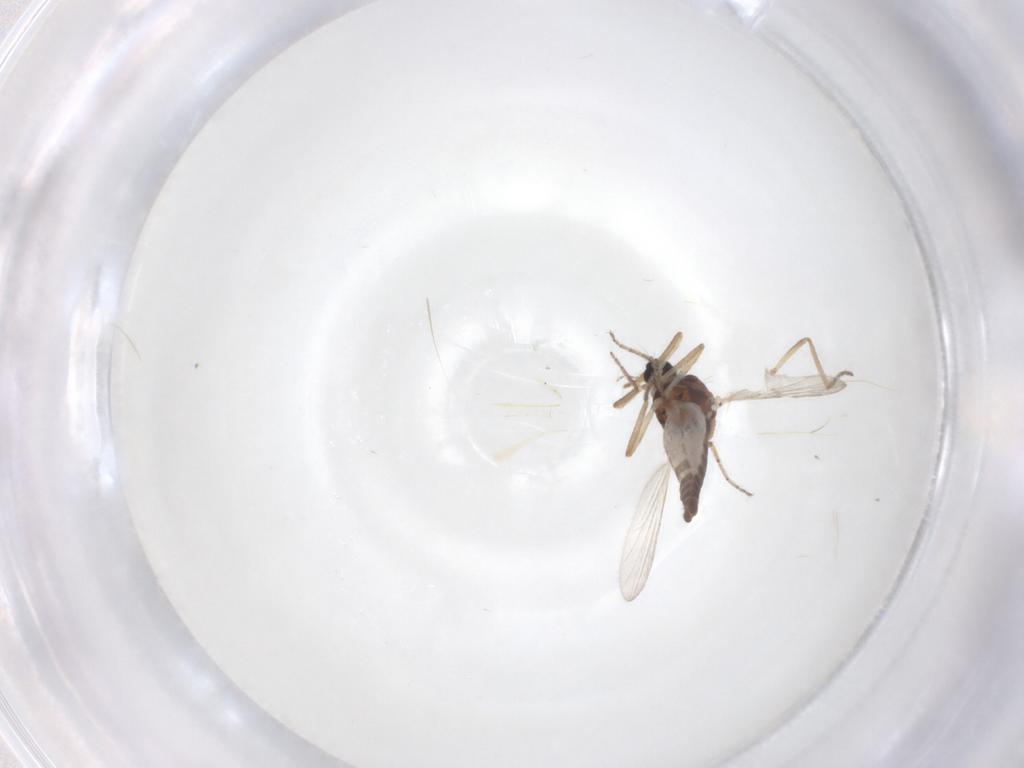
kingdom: Animalia
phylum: Arthropoda
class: Insecta
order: Diptera
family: Ceratopogonidae
